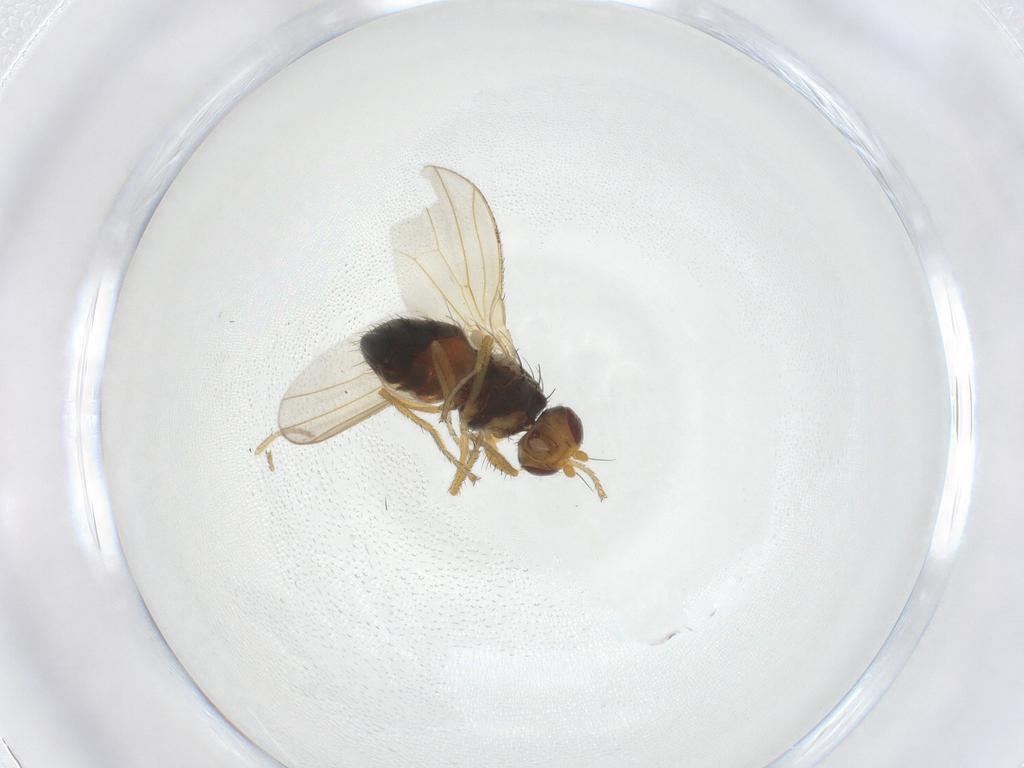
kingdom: Animalia
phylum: Arthropoda
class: Insecta
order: Diptera
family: Heleomyzidae
